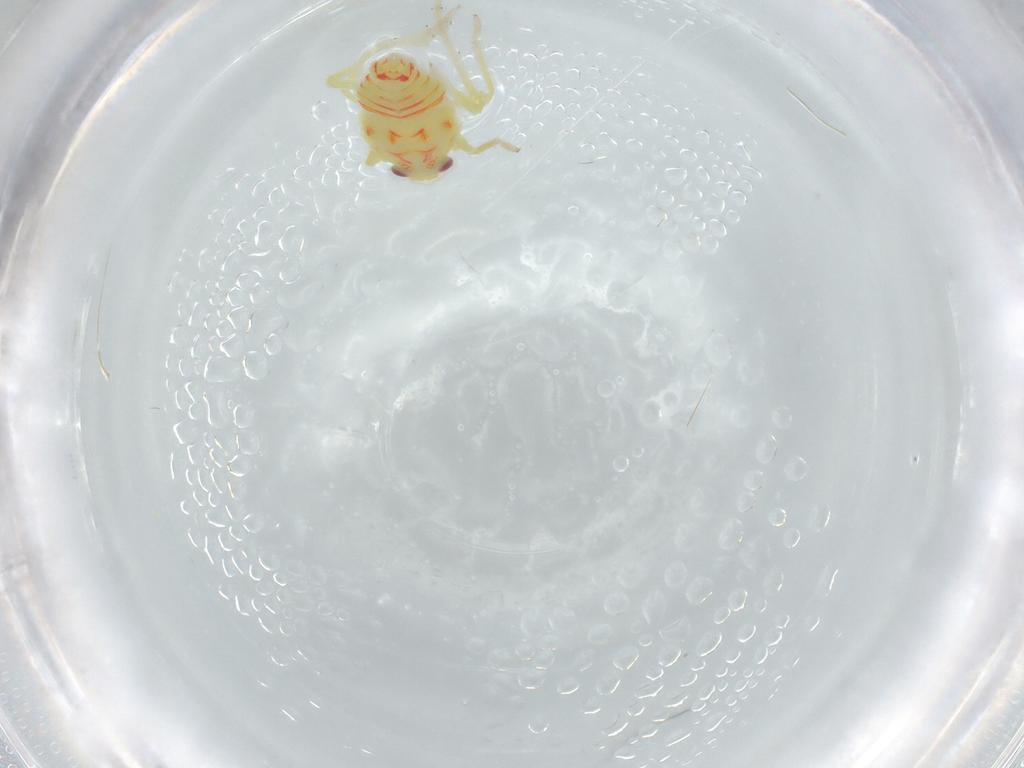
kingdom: Animalia
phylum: Arthropoda
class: Insecta
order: Hemiptera
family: Tropiduchidae
